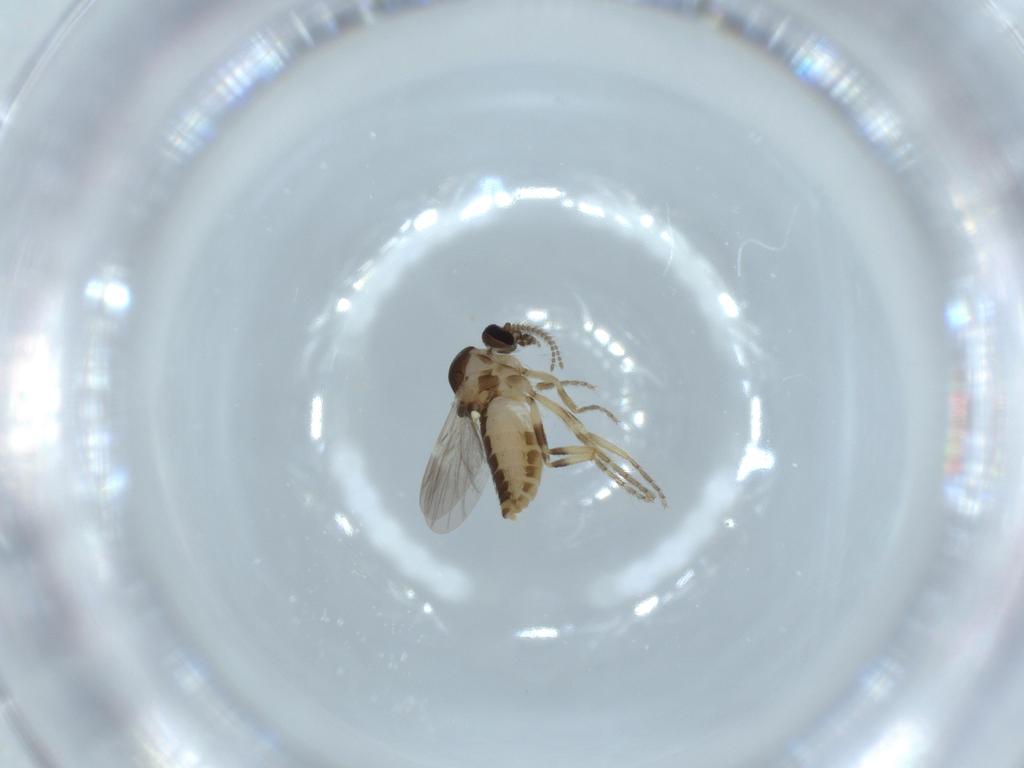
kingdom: Animalia
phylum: Arthropoda
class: Insecta
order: Diptera
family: Ceratopogonidae
